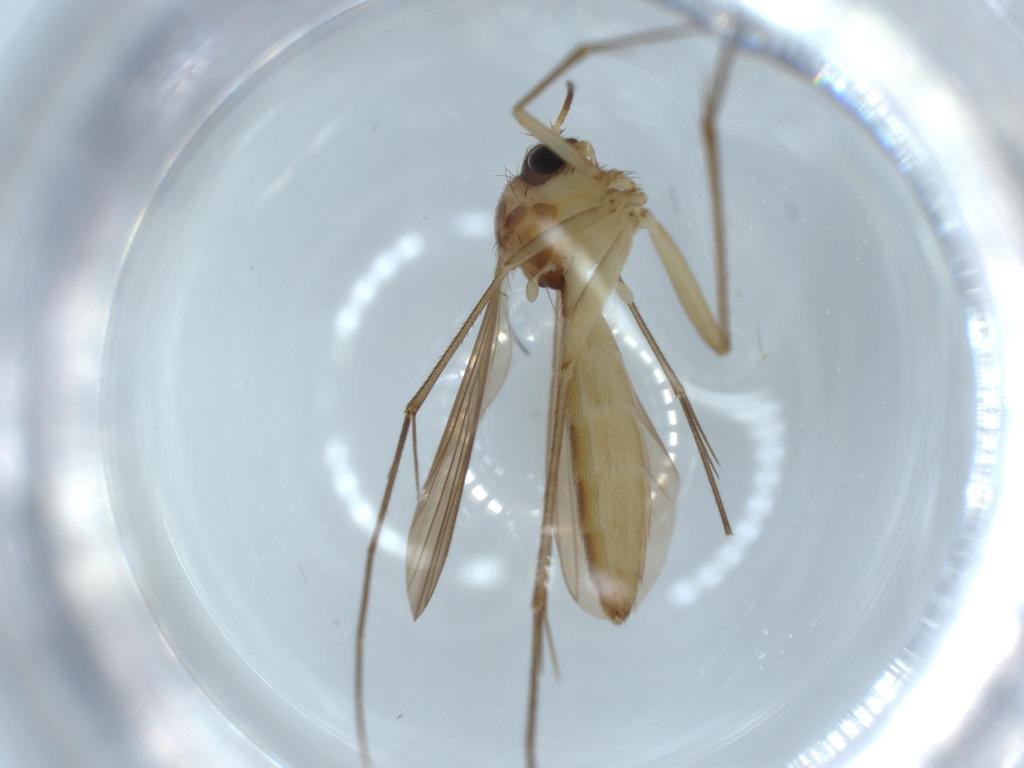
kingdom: Animalia
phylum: Arthropoda
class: Insecta
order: Diptera
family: Cecidomyiidae
